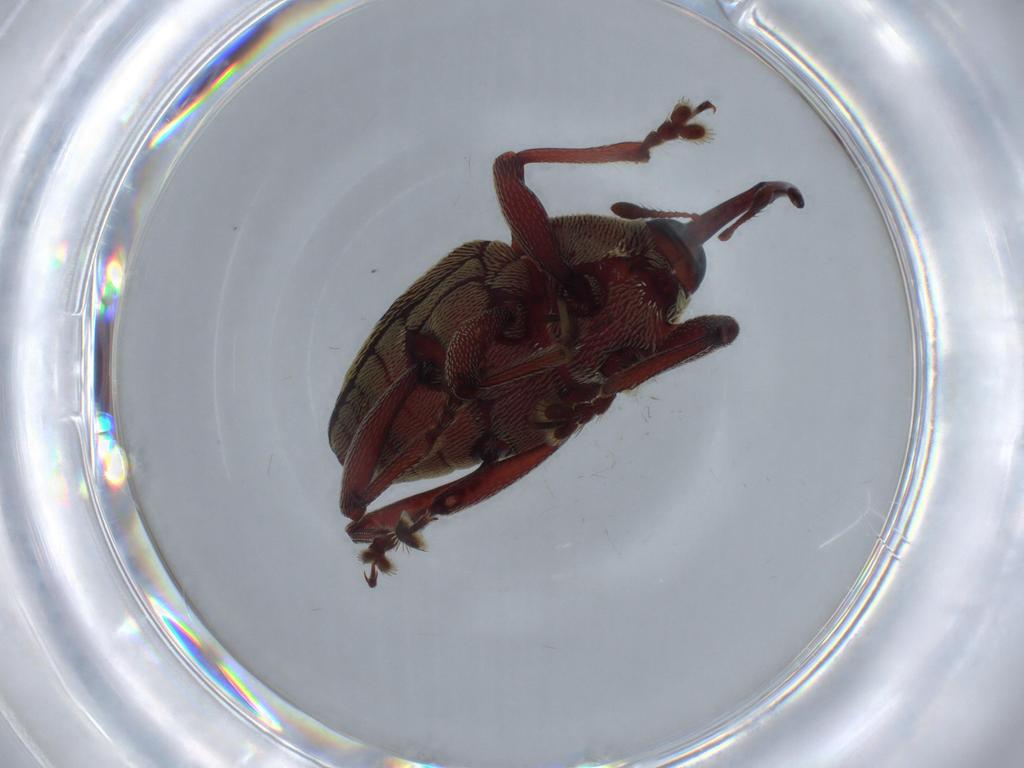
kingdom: Animalia
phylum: Arthropoda
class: Insecta
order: Coleoptera
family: Curculionidae
